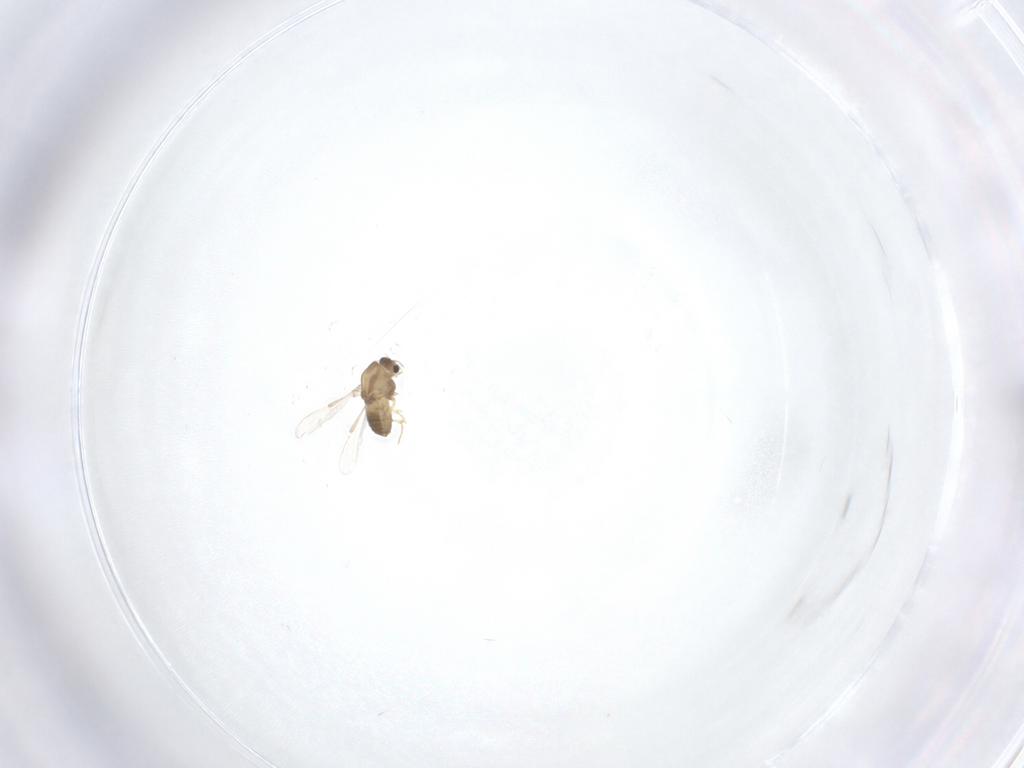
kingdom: Animalia
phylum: Arthropoda
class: Insecta
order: Diptera
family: Chironomidae
